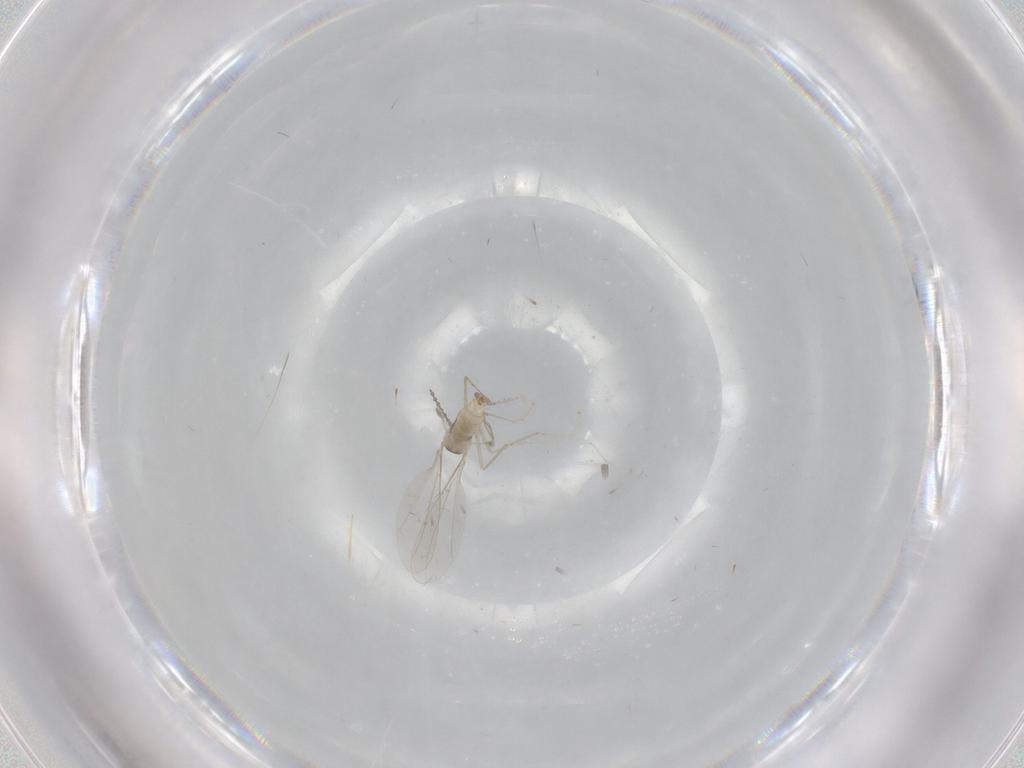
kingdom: Animalia
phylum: Arthropoda
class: Insecta
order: Diptera
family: Cecidomyiidae
